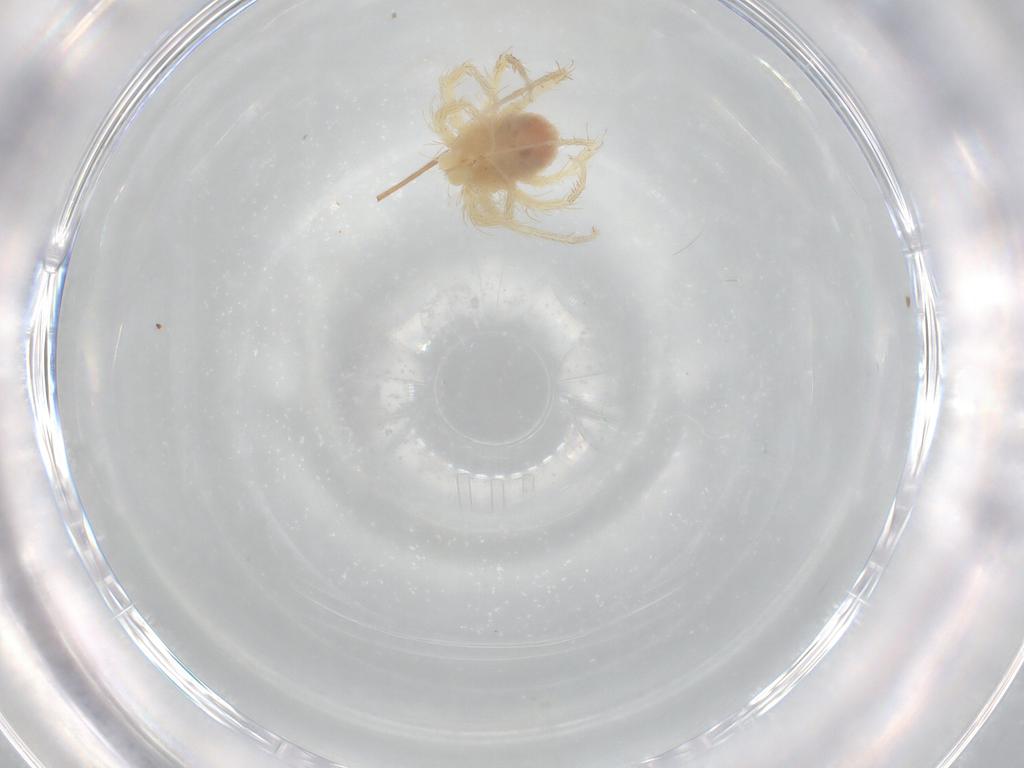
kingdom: Animalia
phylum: Arthropoda
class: Arachnida
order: Trombidiformes
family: Anystidae
